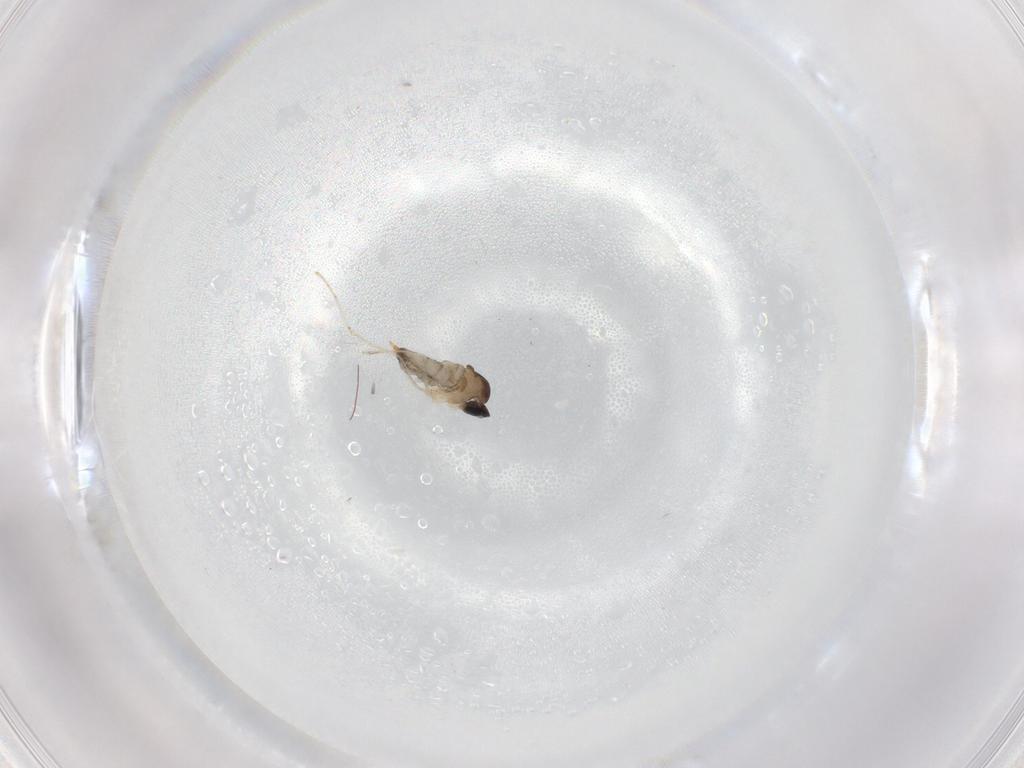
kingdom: Animalia
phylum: Arthropoda
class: Insecta
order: Diptera
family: Cecidomyiidae
